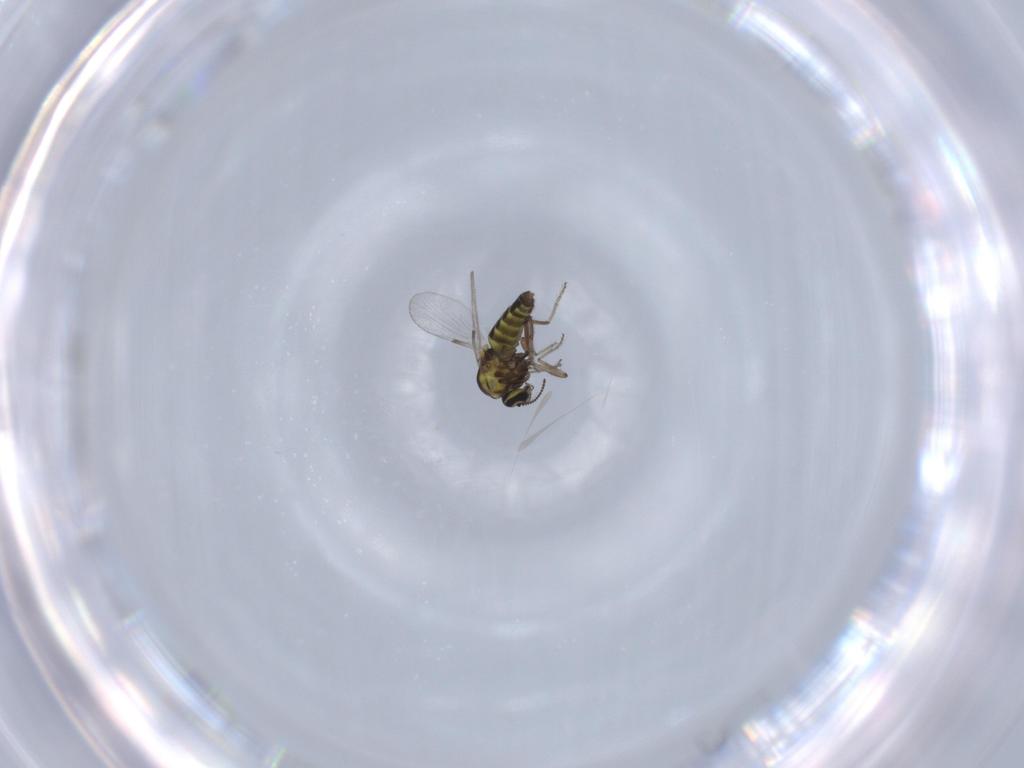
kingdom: Animalia
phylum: Arthropoda
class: Insecta
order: Diptera
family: Ceratopogonidae
